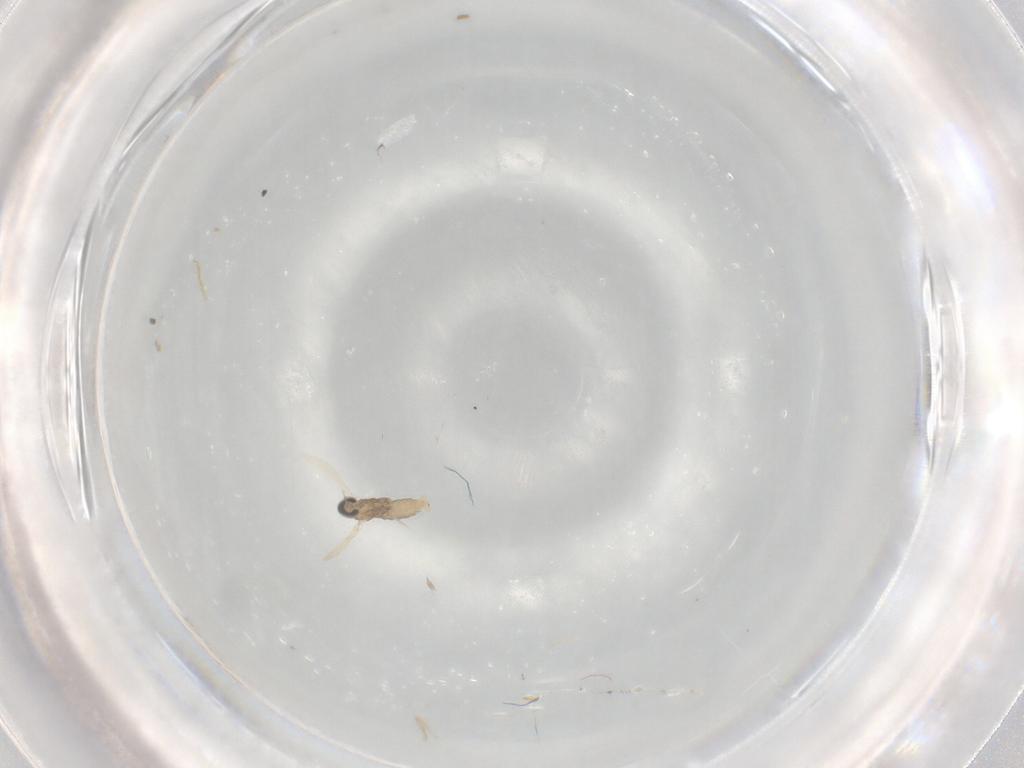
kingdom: Animalia
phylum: Arthropoda
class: Insecta
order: Diptera
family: Cecidomyiidae
